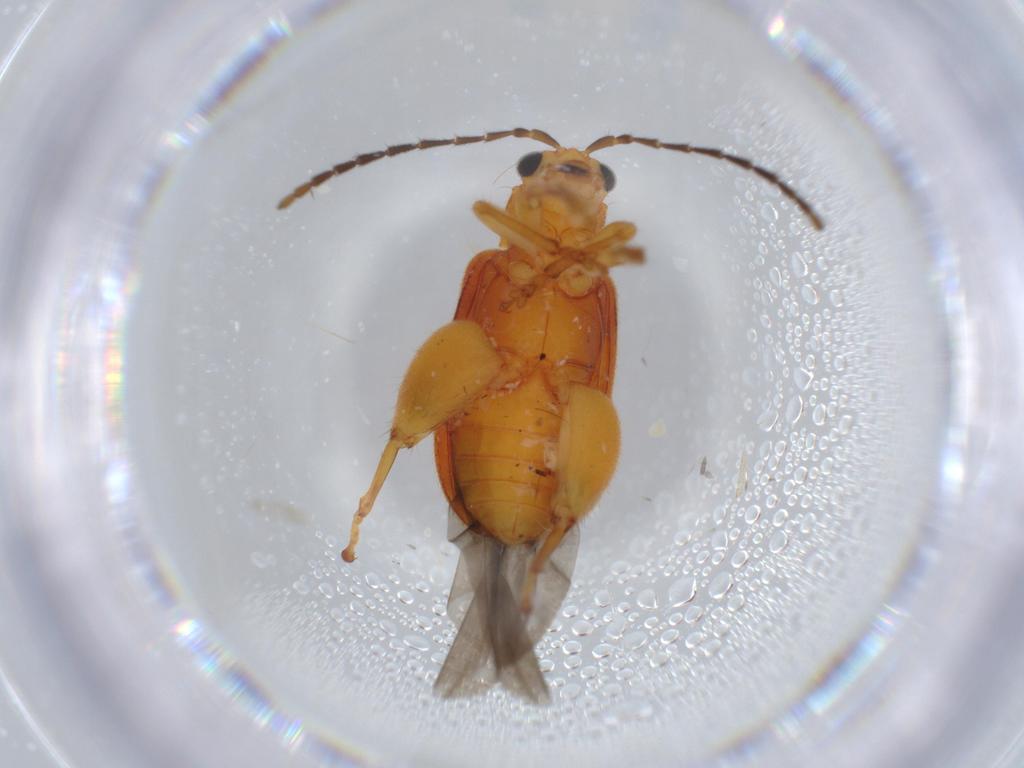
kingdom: Animalia
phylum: Arthropoda
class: Insecta
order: Coleoptera
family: Chrysomelidae
